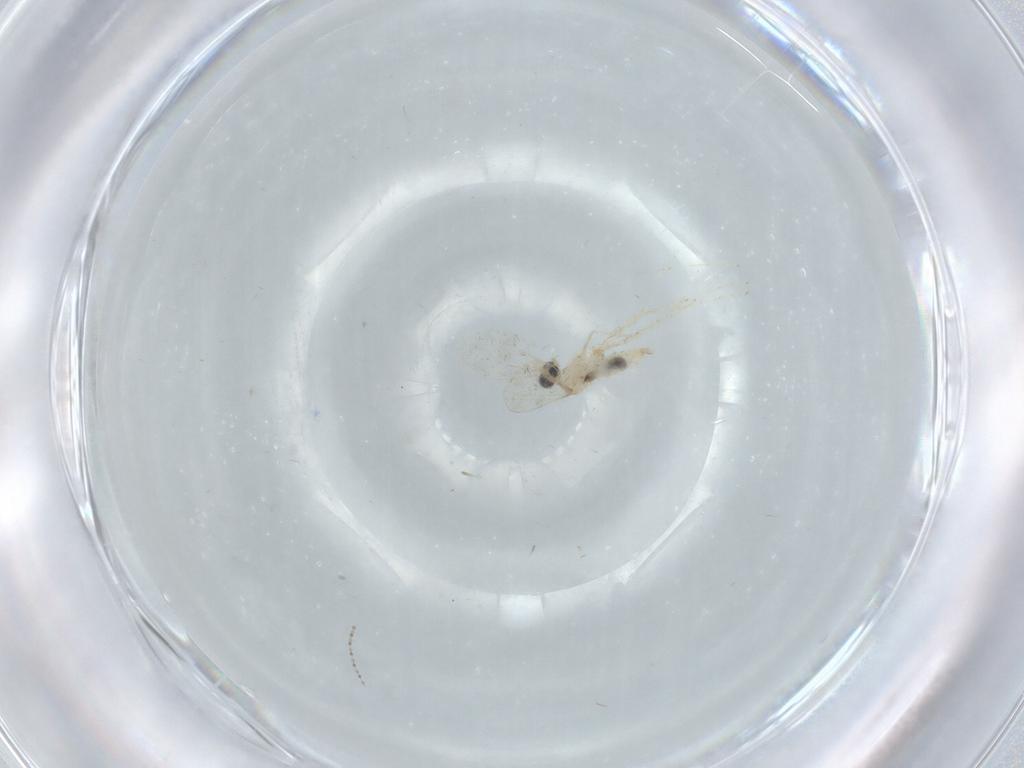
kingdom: Animalia
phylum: Arthropoda
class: Insecta
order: Diptera
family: Cecidomyiidae
